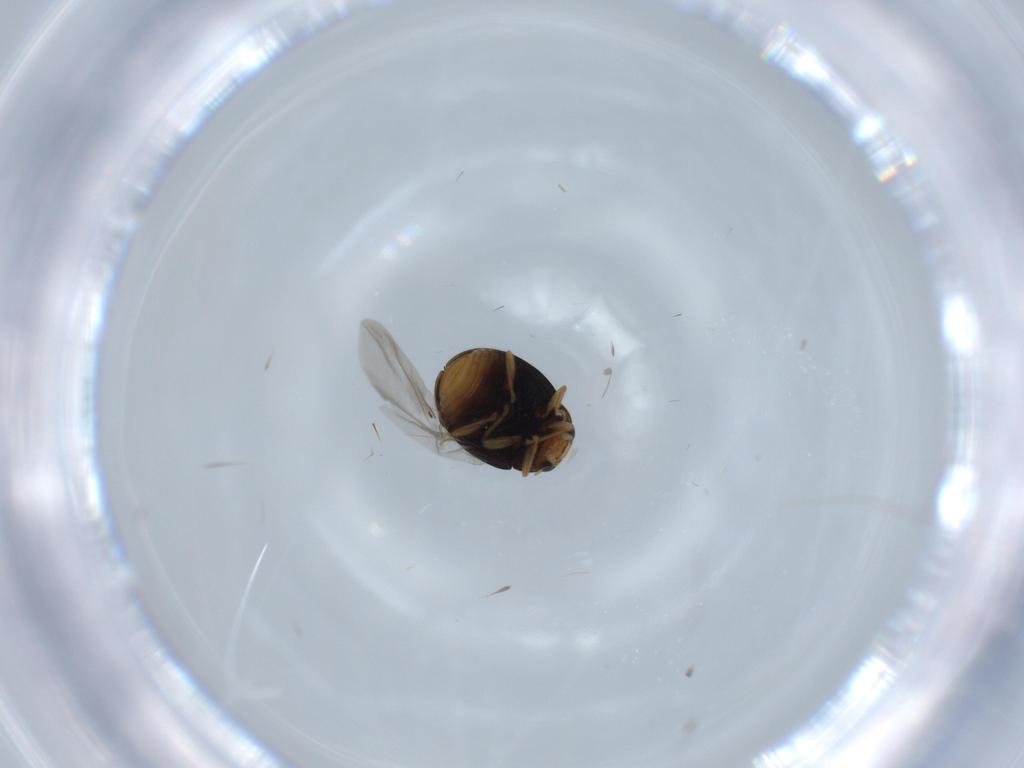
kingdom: Animalia
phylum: Arthropoda
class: Insecta
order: Coleoptera
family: Coccinellidae
